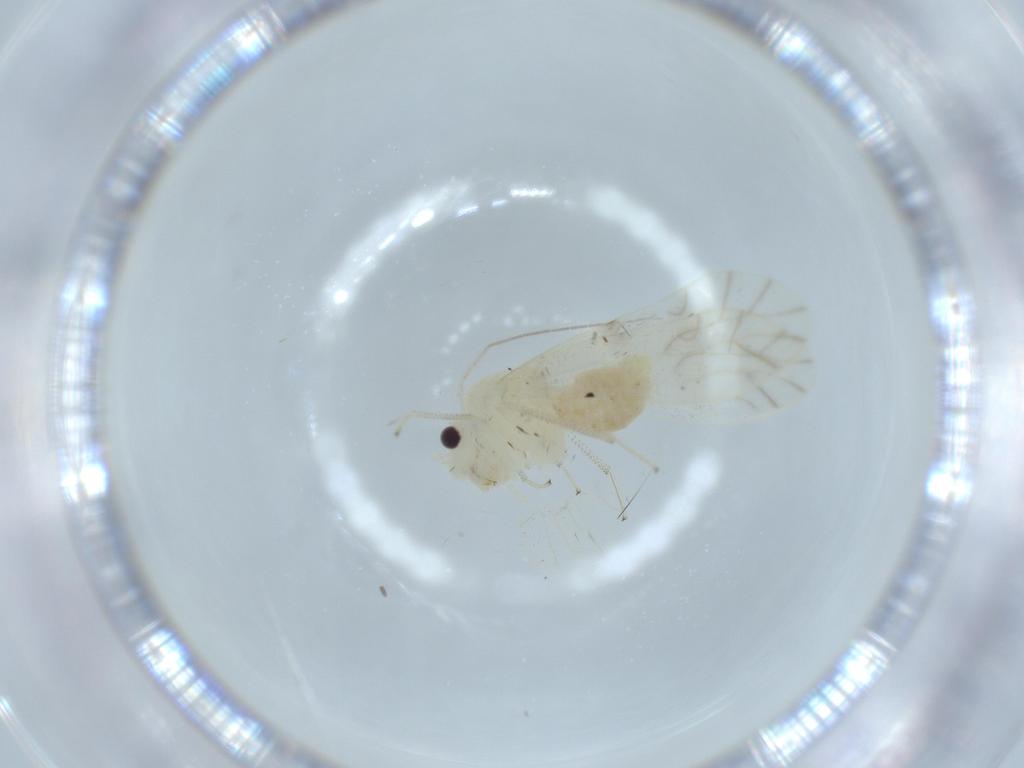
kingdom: Animalia
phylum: Arthropoda
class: Insecta
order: Psocodea
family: Caeciliusidae
